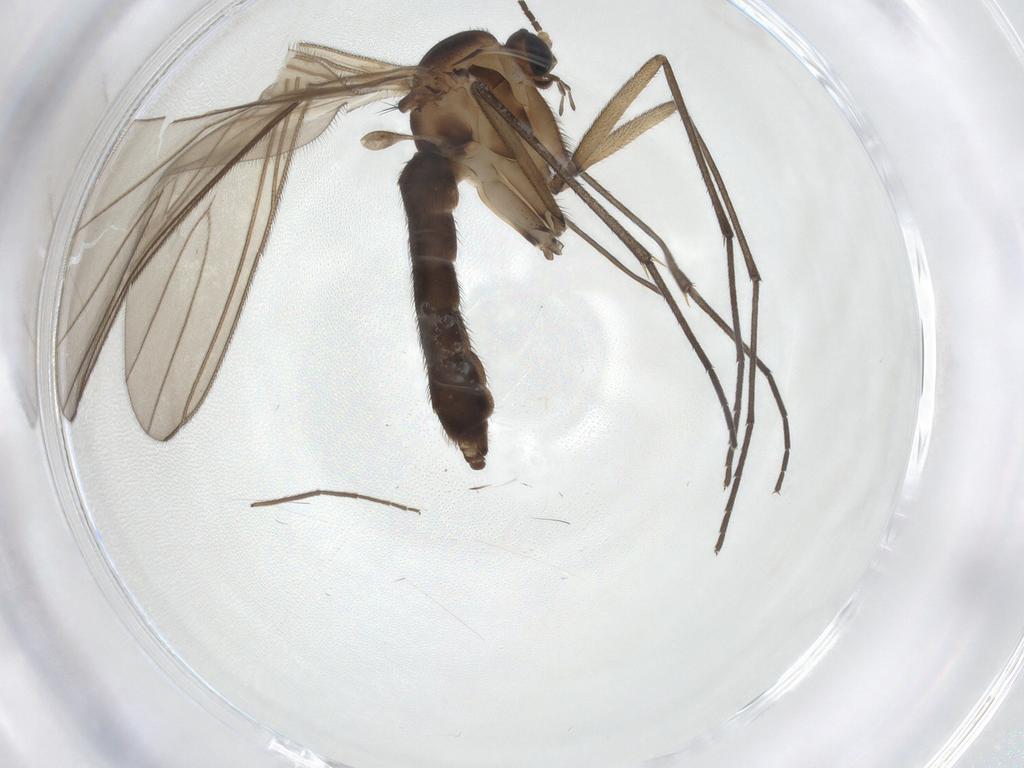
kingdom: Animalia
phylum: Arthropoda
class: Insecta
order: Diptera
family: Sciaridae
